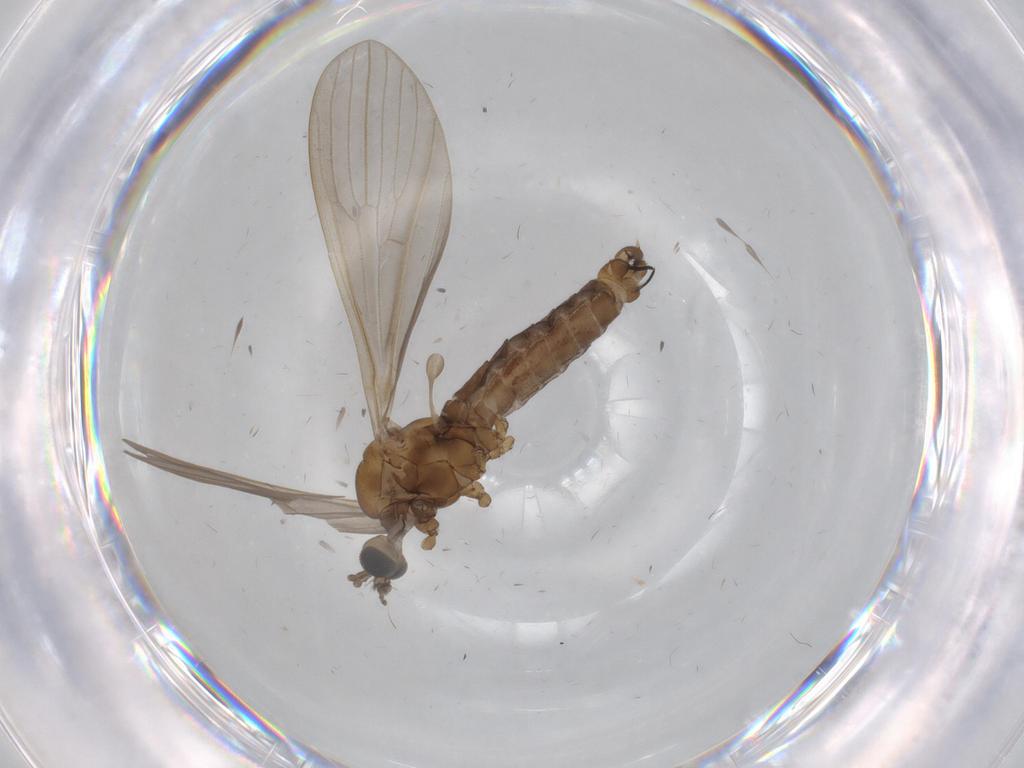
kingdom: Animalia
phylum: Arthropoda
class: Insecta
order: Diptera
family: Limoniidae
